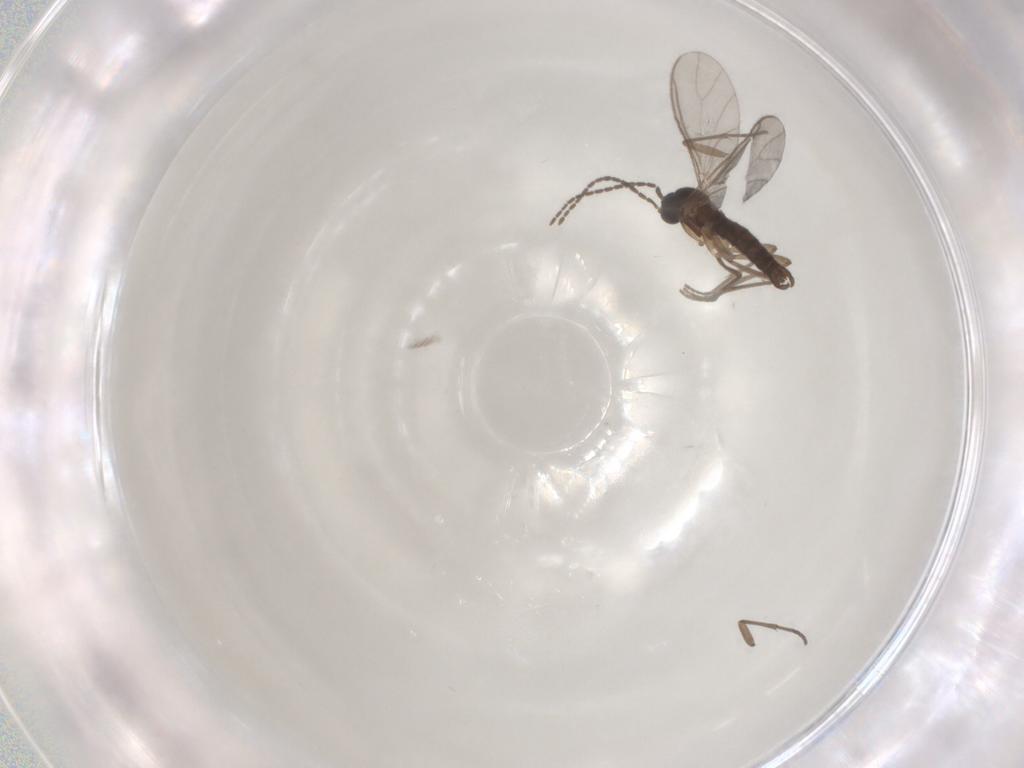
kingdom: Animalia
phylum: Arthropoda
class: Insecta
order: Diptera
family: Sciaridae
